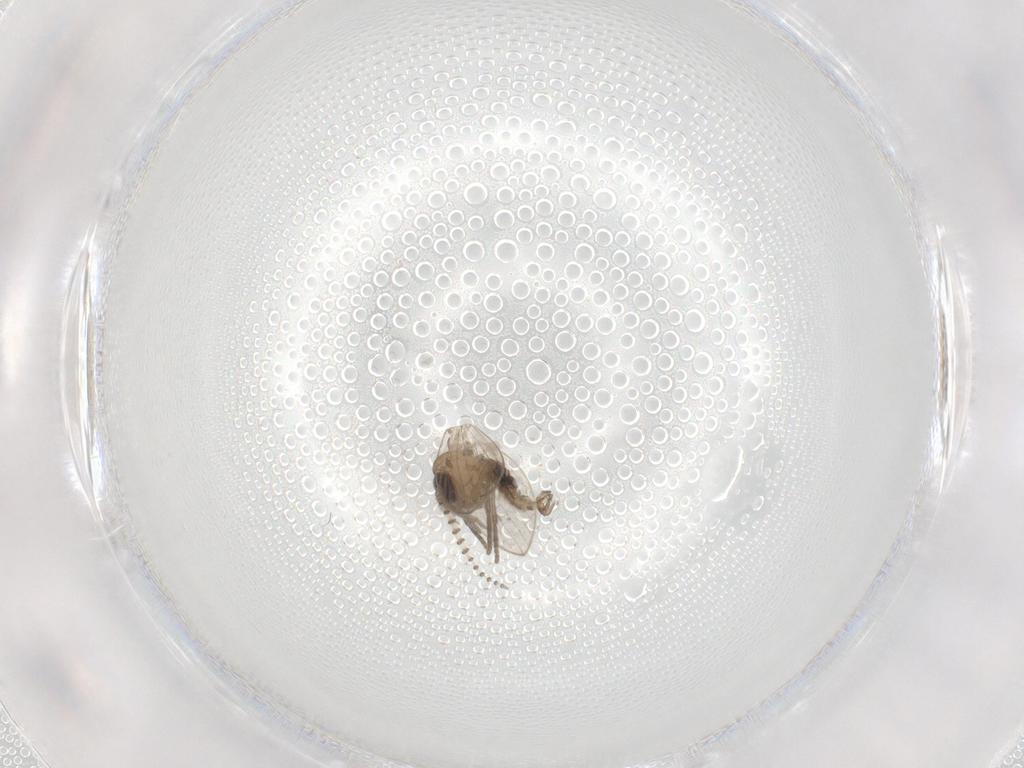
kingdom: Animalia
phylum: Arthropoda
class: Insecta
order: Diptera
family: Psychodidae
